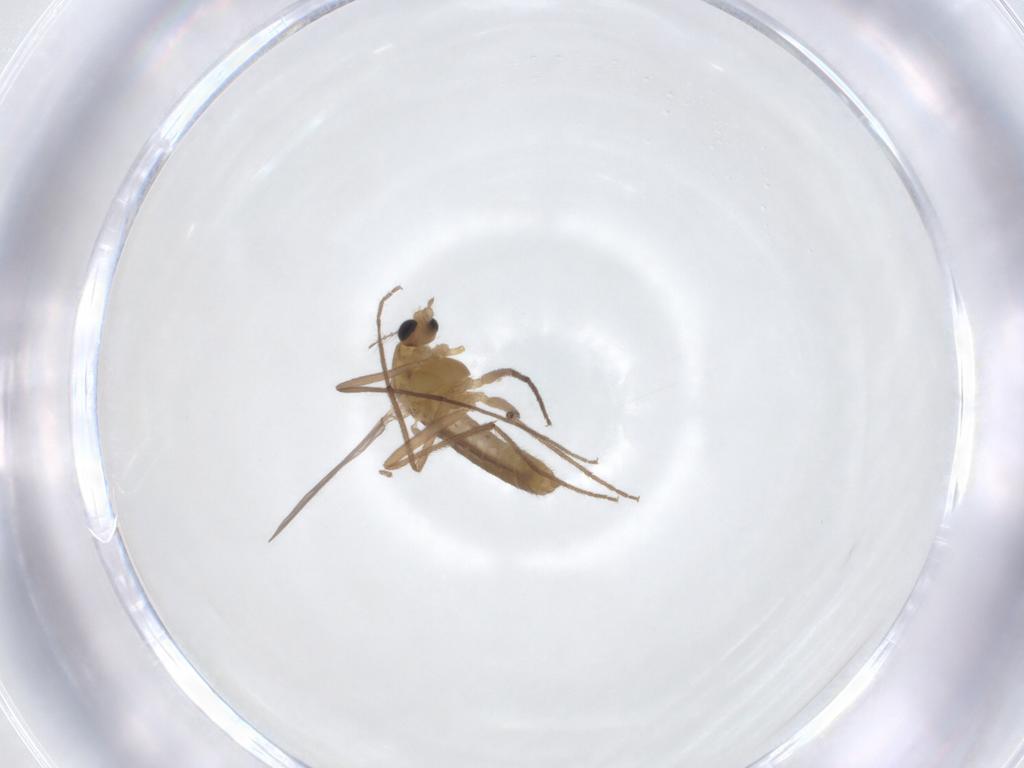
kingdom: Animalia
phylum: Arthropoda
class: Insecta
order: Diptera
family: Chironomidae
